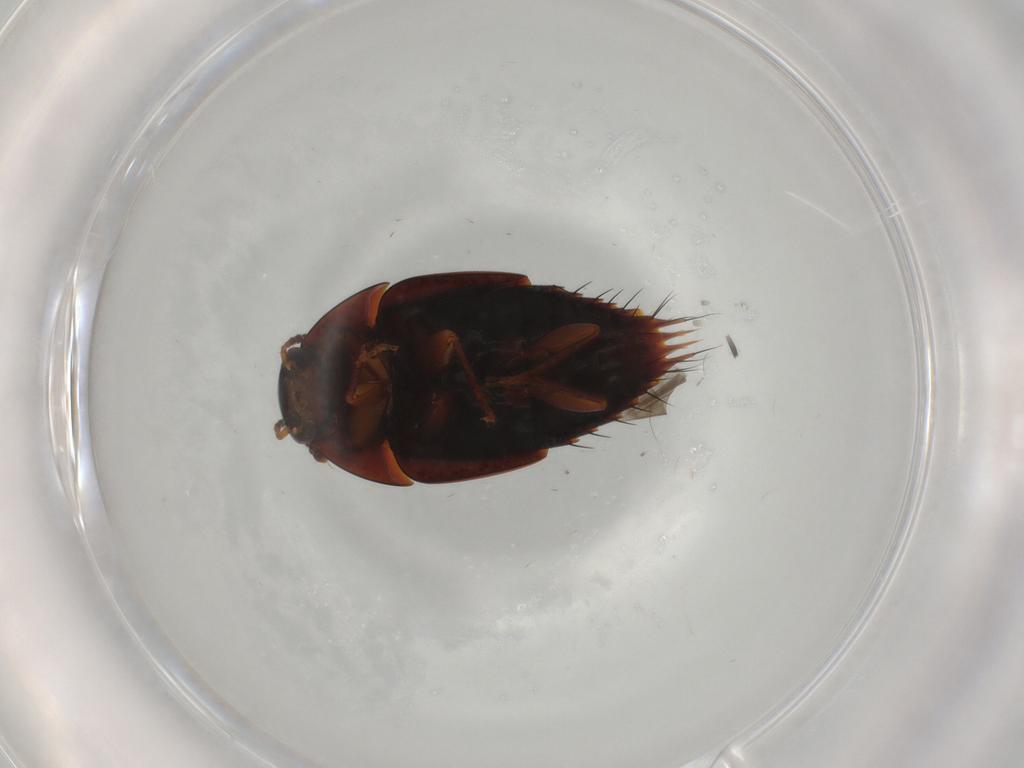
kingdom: Animalia
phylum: Arthropoda
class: Insecta
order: Coleoptera
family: Staphylinidae
